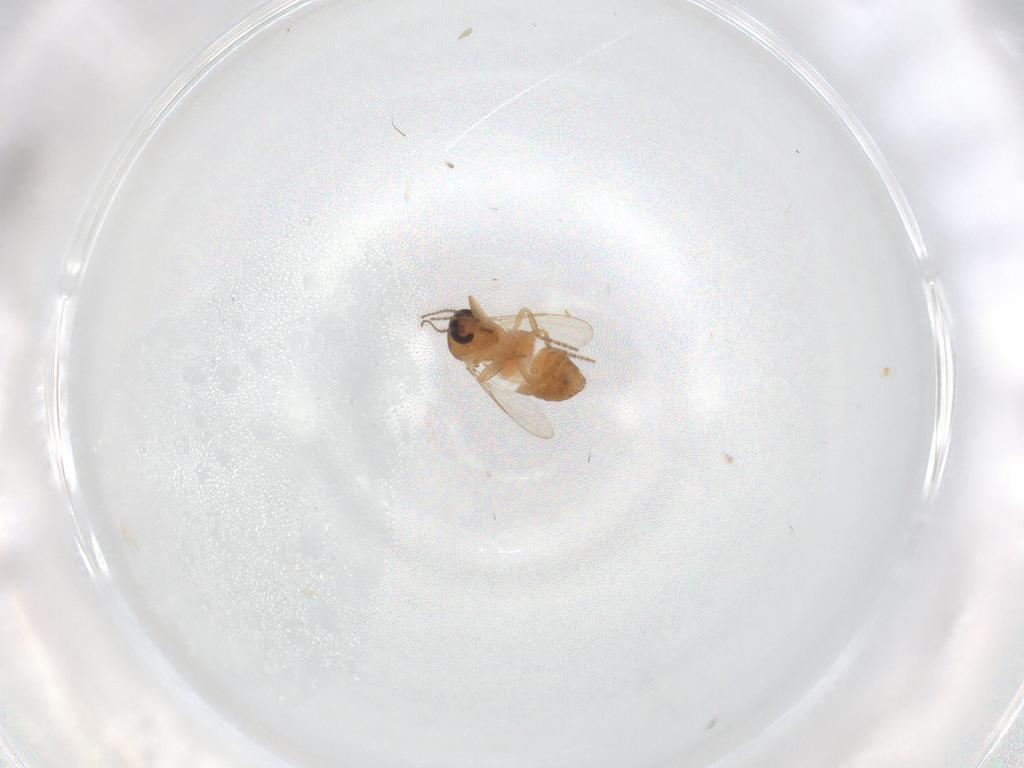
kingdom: Animalia
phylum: Arthropoda
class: Insecta
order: Diptera
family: Ceratopogonidae
